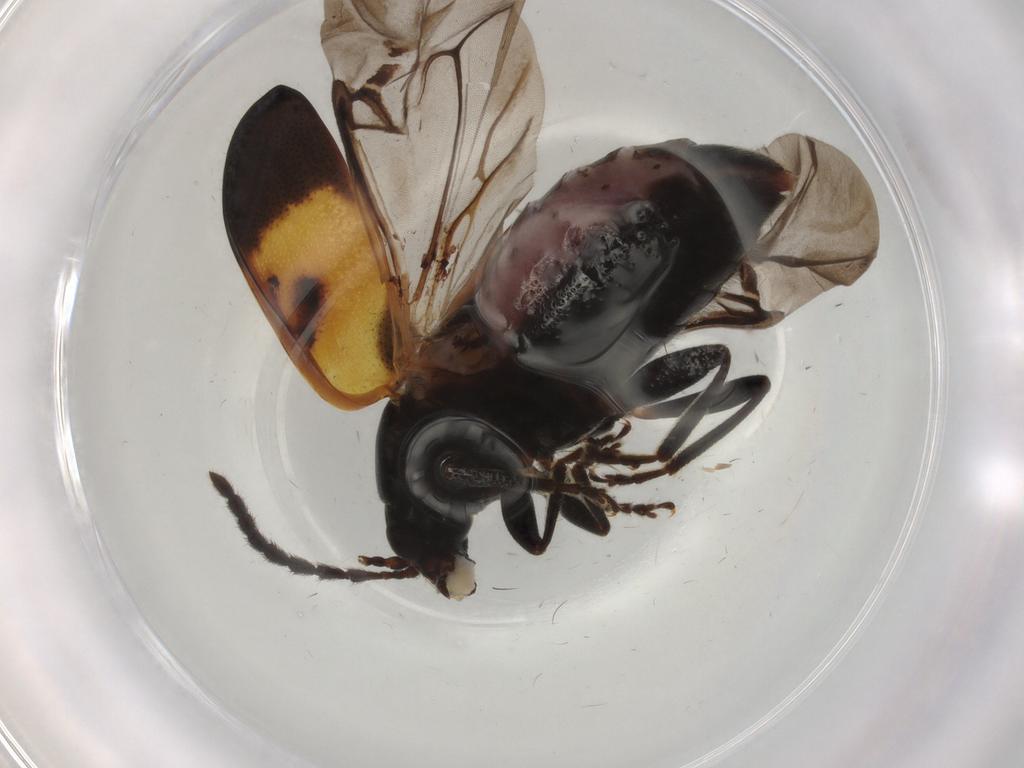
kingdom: Animalia
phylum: Arthropoda
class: Insecta
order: Coleoptera
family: Chrysomelidae
